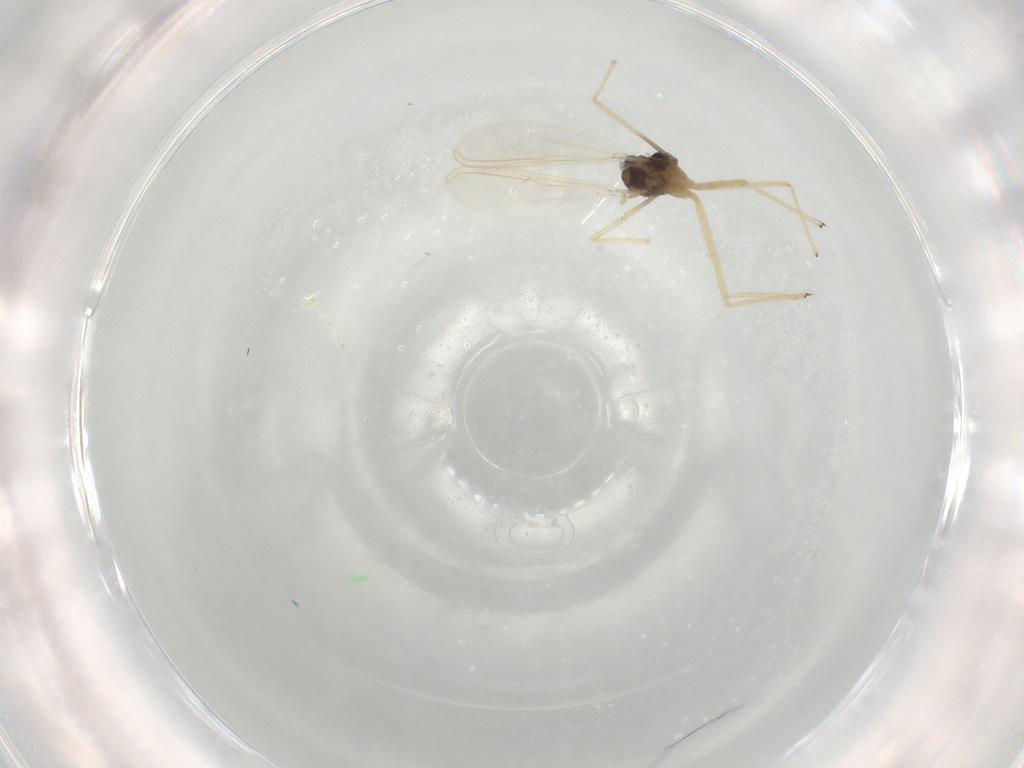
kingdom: Animalia
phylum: Arthropoda
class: Insecta
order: Diptera
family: Chironomidae
